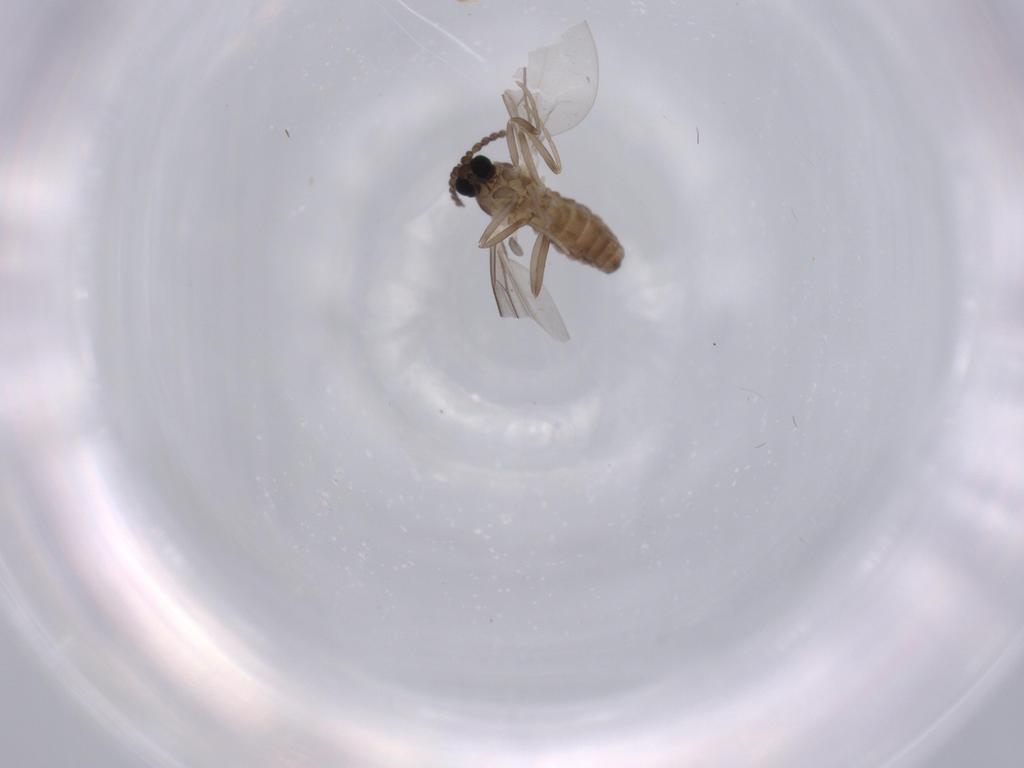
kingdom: Animalia
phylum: Arthropoda
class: Insecta
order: Diptera
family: Cecidomyiidae
